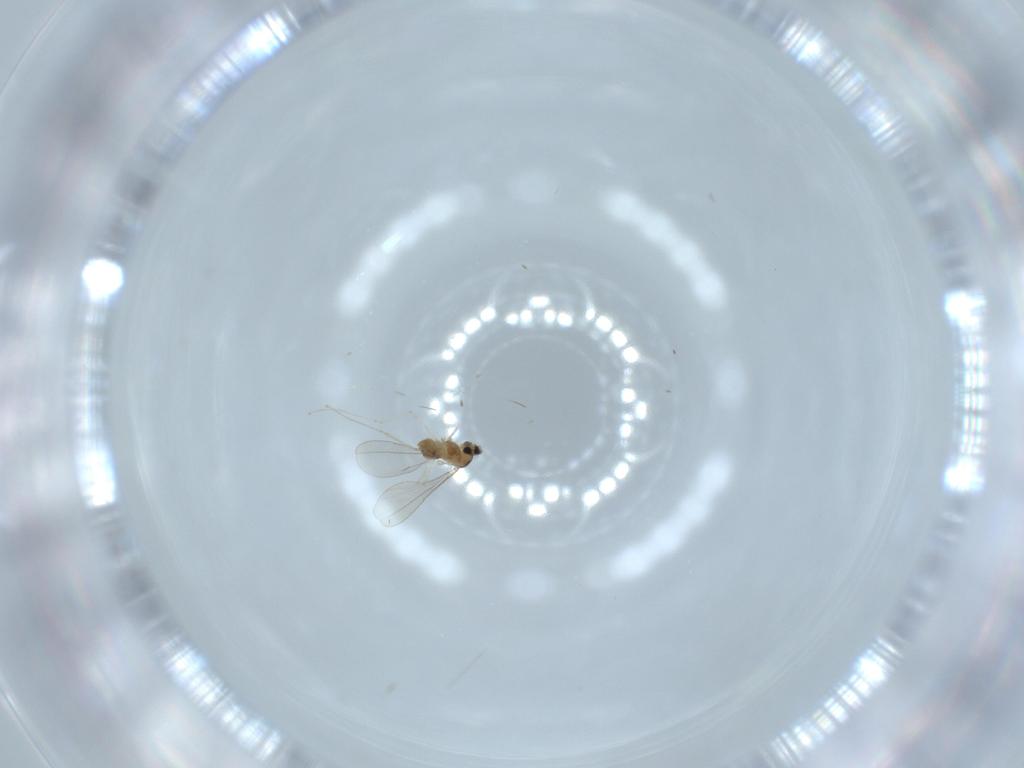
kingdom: Animalia
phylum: Arthropoda
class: Insecta
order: Diptera
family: Cecidomyiidae
